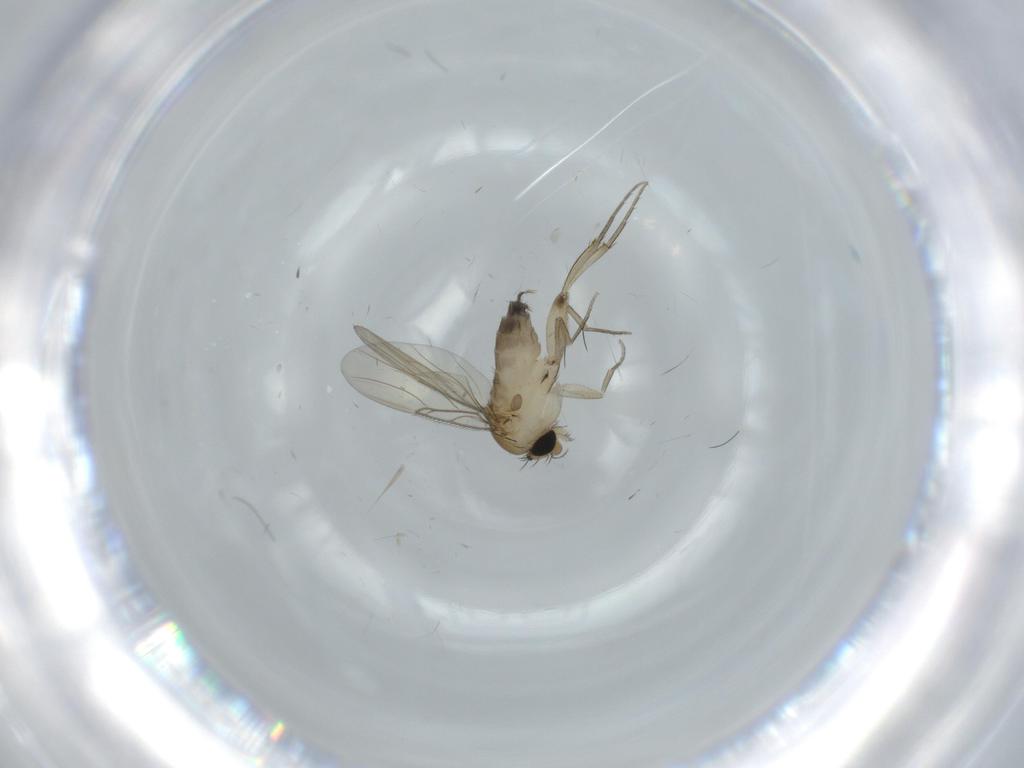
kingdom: Animalia
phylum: Arthropoda
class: Insecta
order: Diptera
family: Phoridae
